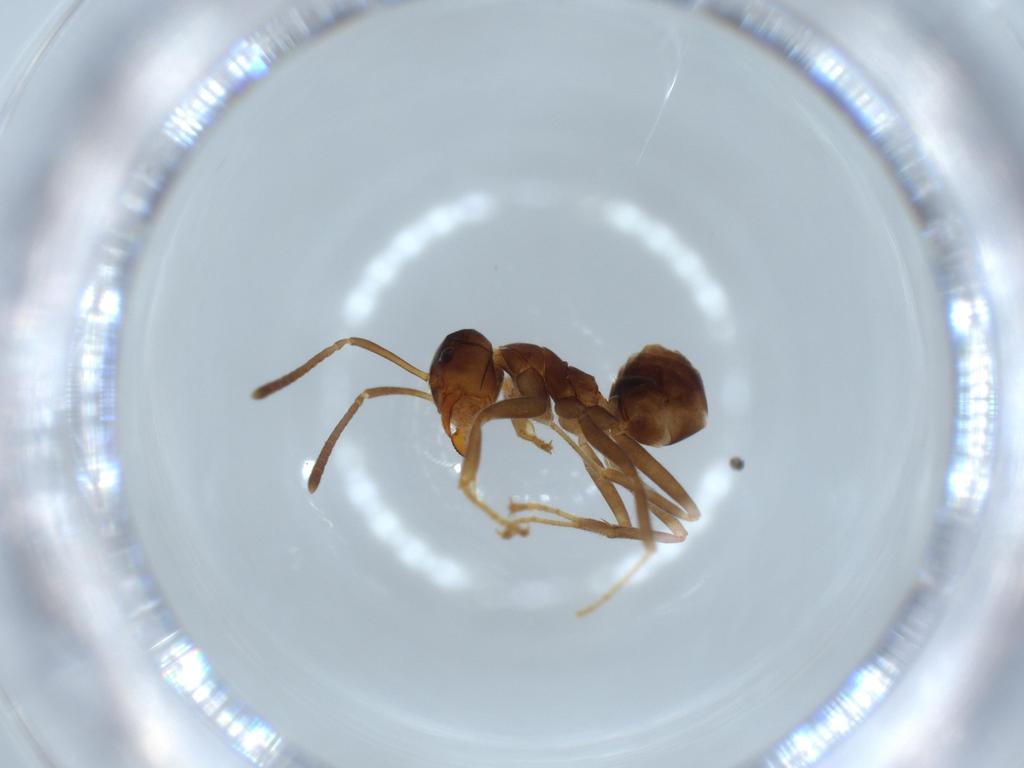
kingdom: Animalia
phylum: Arthropoda
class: Insecta
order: Hymenoptera
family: Formicidae
